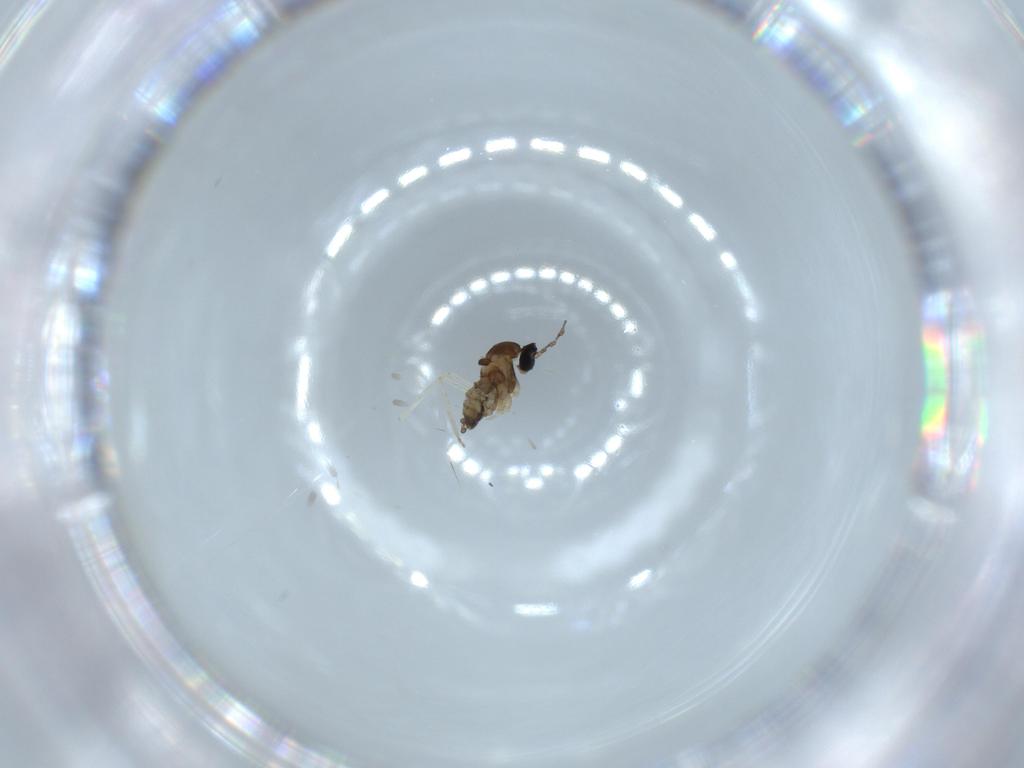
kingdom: Animalia
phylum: Arthropoda
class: Insecta
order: Diptera
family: Cecidomyiidae
